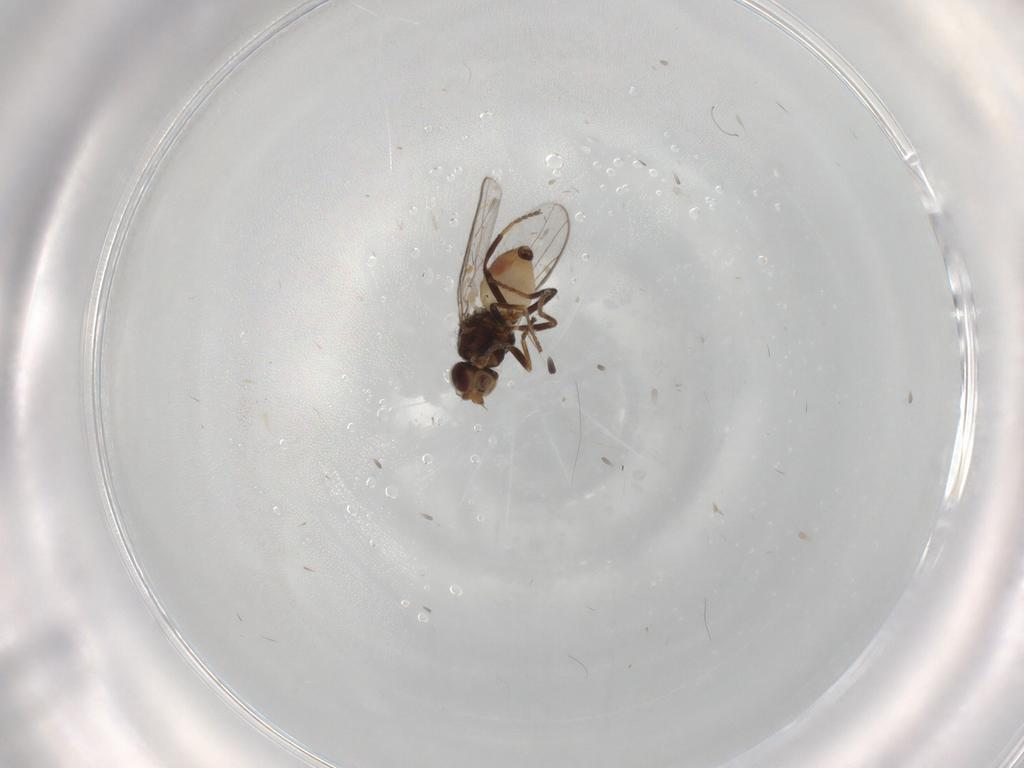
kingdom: Animalia
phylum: Arthropoda
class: Insecta
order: Diptera
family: Chloropidae
